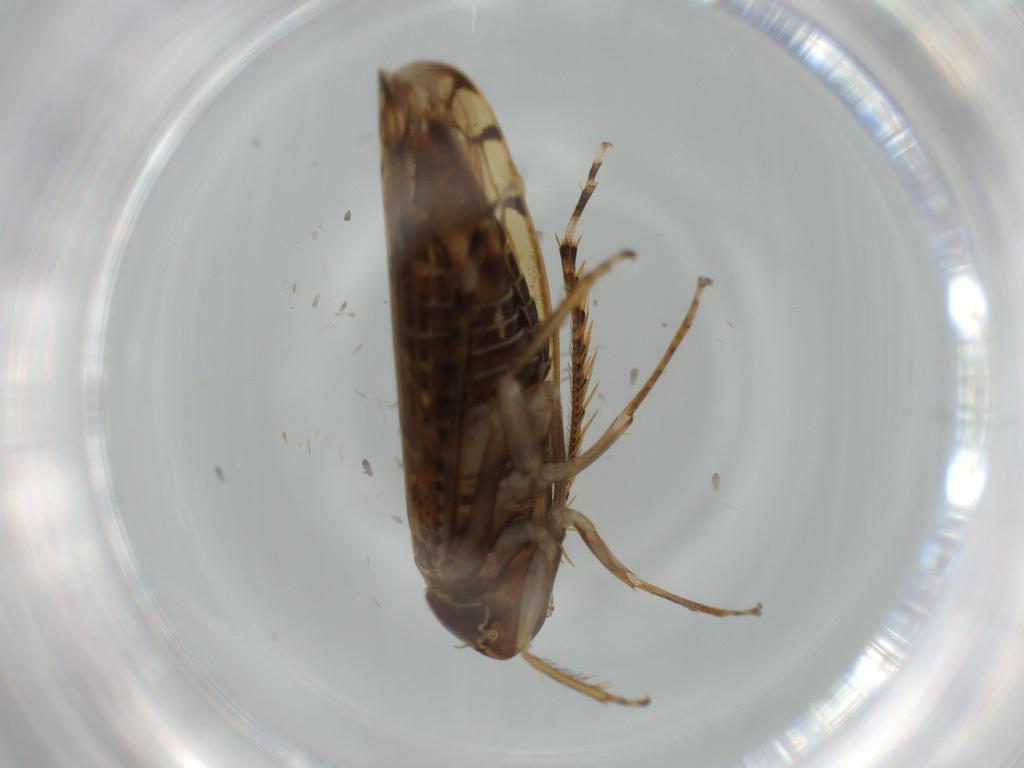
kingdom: Animalia
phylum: Arthropoda
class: Insecta
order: Hemiptera
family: Cicadellidae
